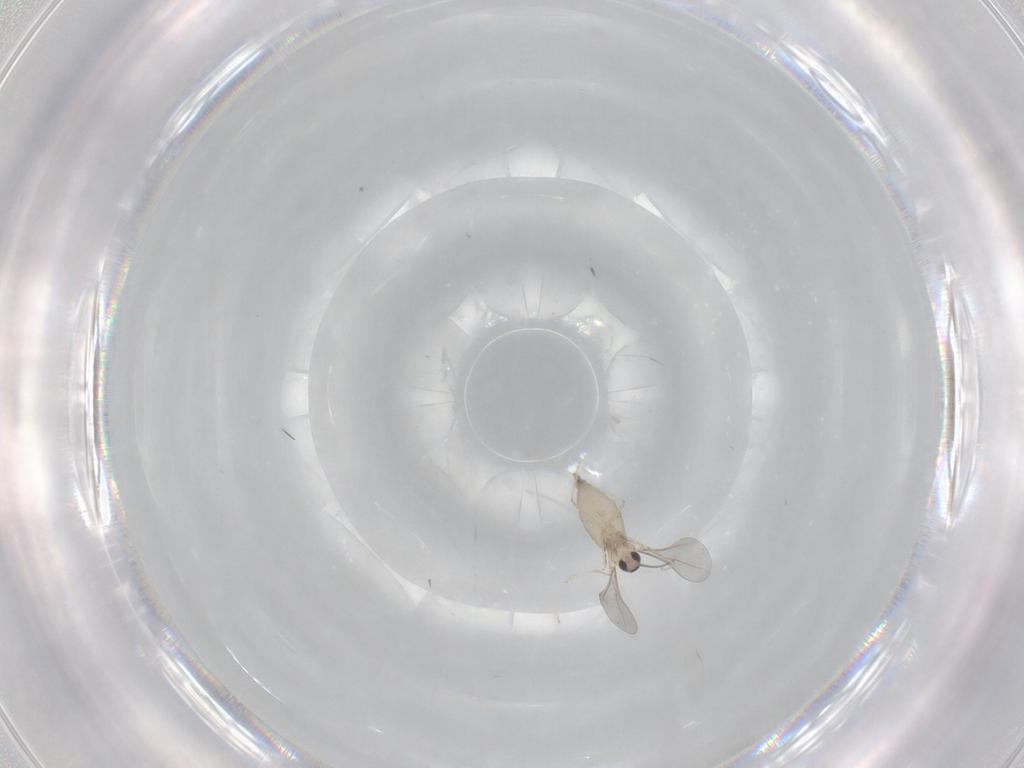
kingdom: Animalia
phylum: Arthropoda
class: Insecta
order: Diptera
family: Cecidomyiidae
